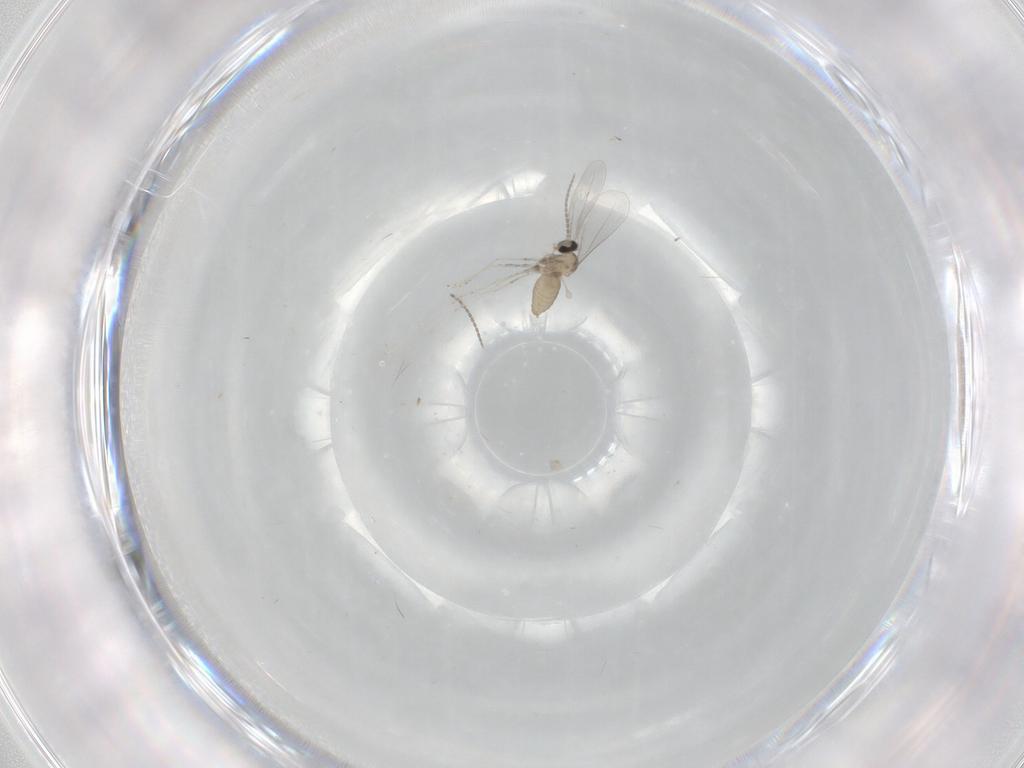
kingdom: Animalia
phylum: Arthropoda
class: Insecta
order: Diptera
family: Cecidomyiidae
